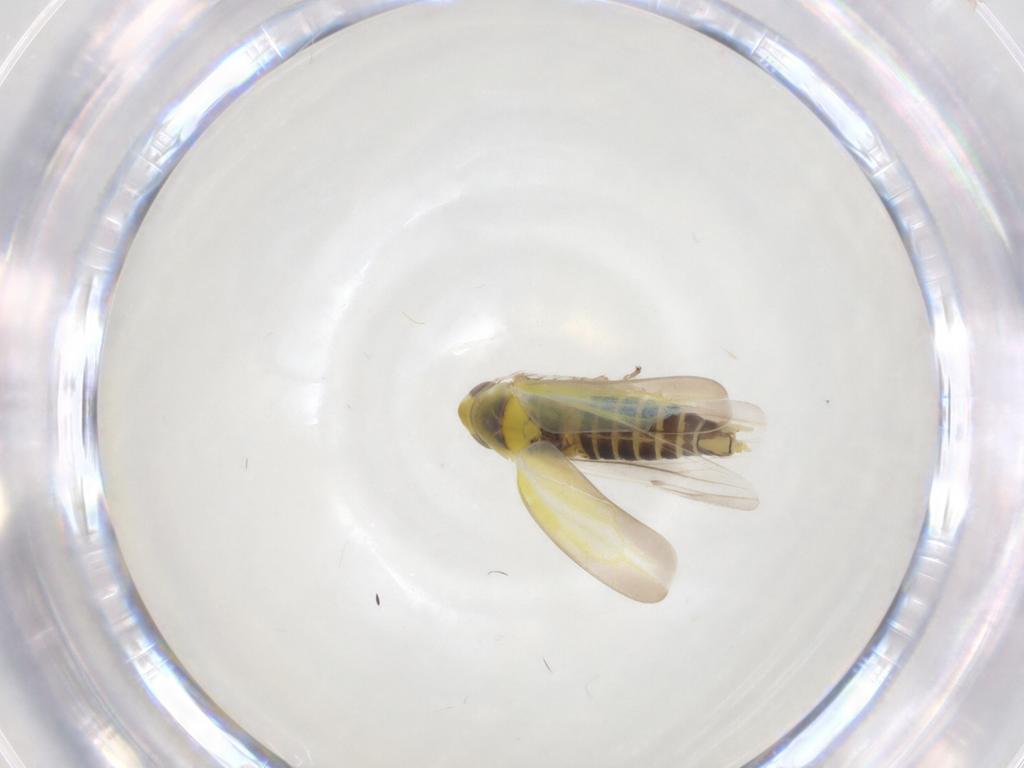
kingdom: Animalia
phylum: Arthropoda
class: Insecta
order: Hemiptera
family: Cicadellidae
